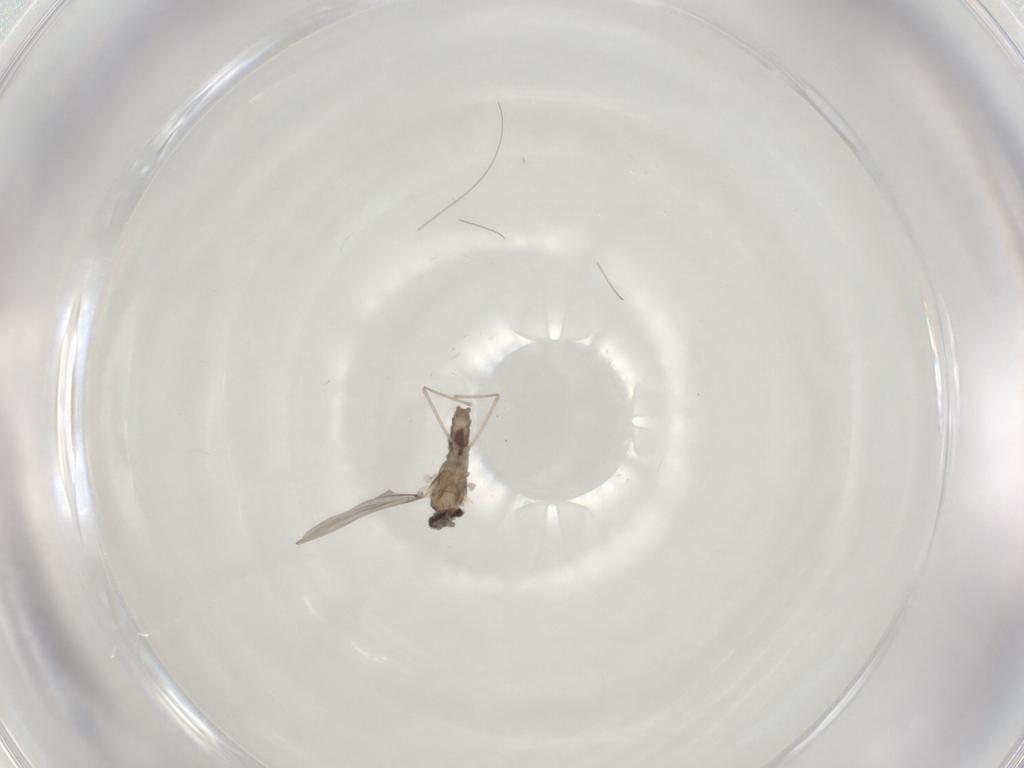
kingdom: Animalia
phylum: Arthropoda
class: Insecta
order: Diptera
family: Cecidomyiidae
